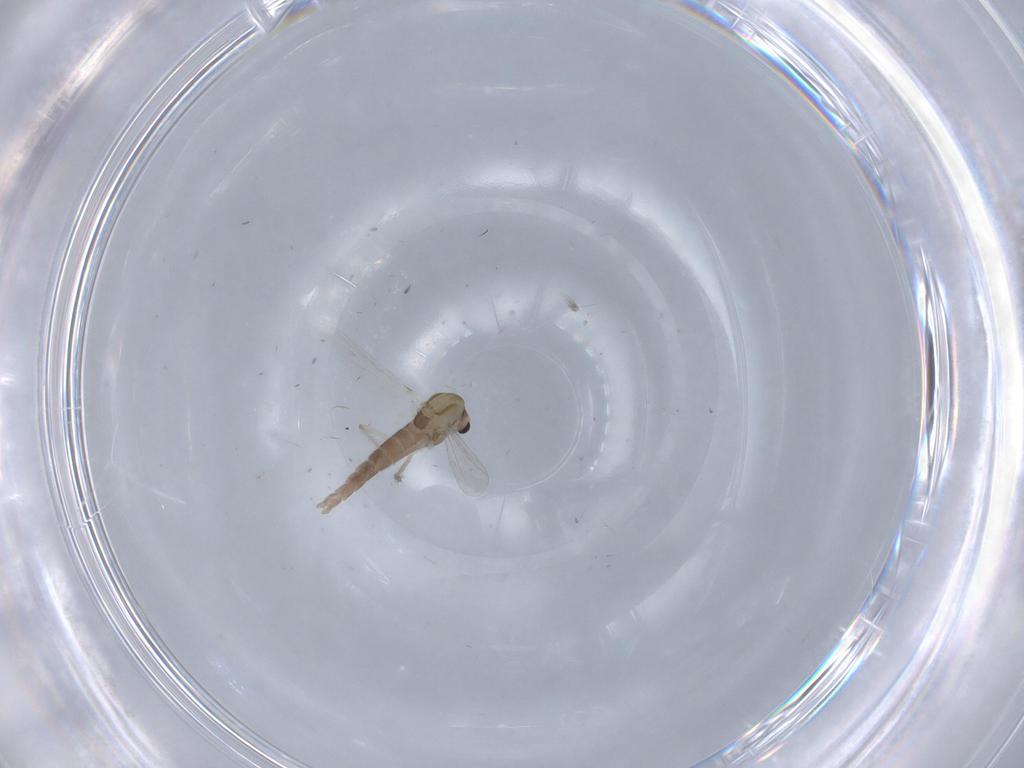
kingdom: Animalia
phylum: Arthropoda
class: Insecta
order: Diptera
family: Chironomidae
